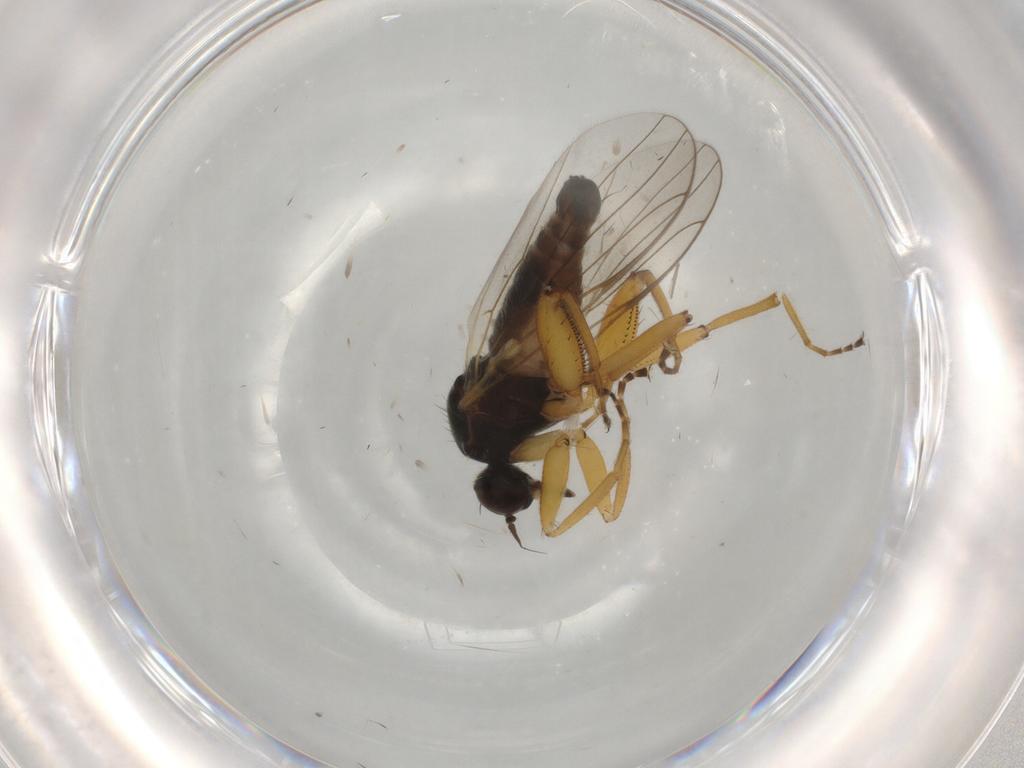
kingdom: Animalia
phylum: Arthropoda
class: Insecta
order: Diptera
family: Hybotidae
